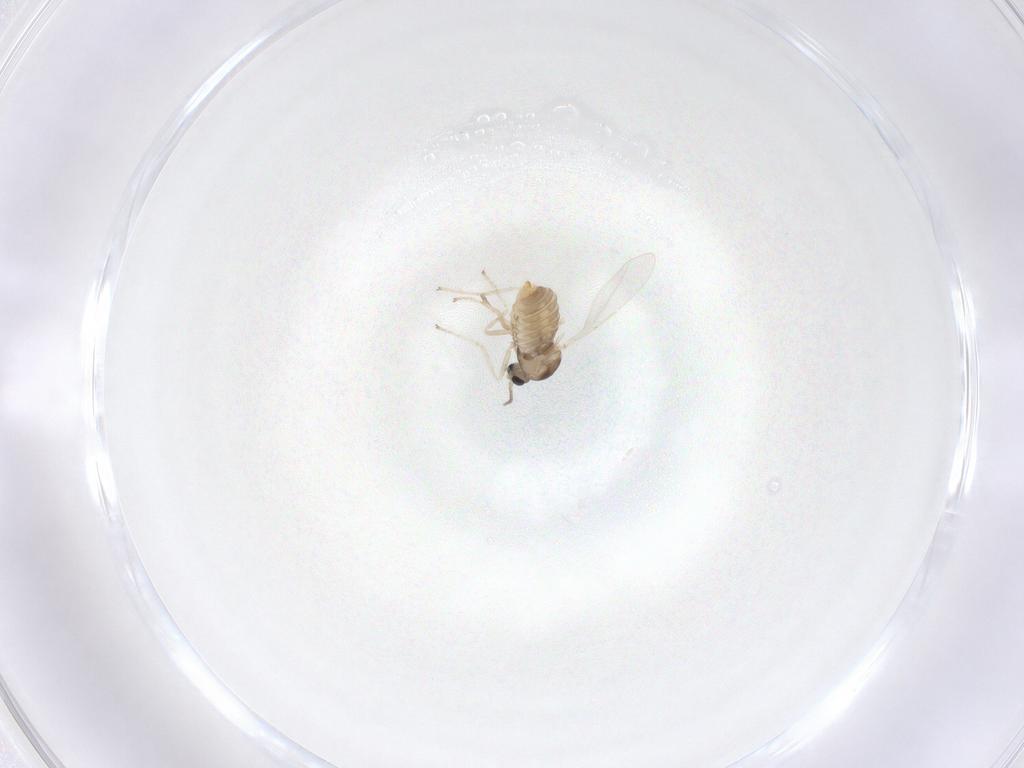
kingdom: Animalia
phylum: Arthropoda
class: Insecta
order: Diptera
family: Cecidomyiidae
